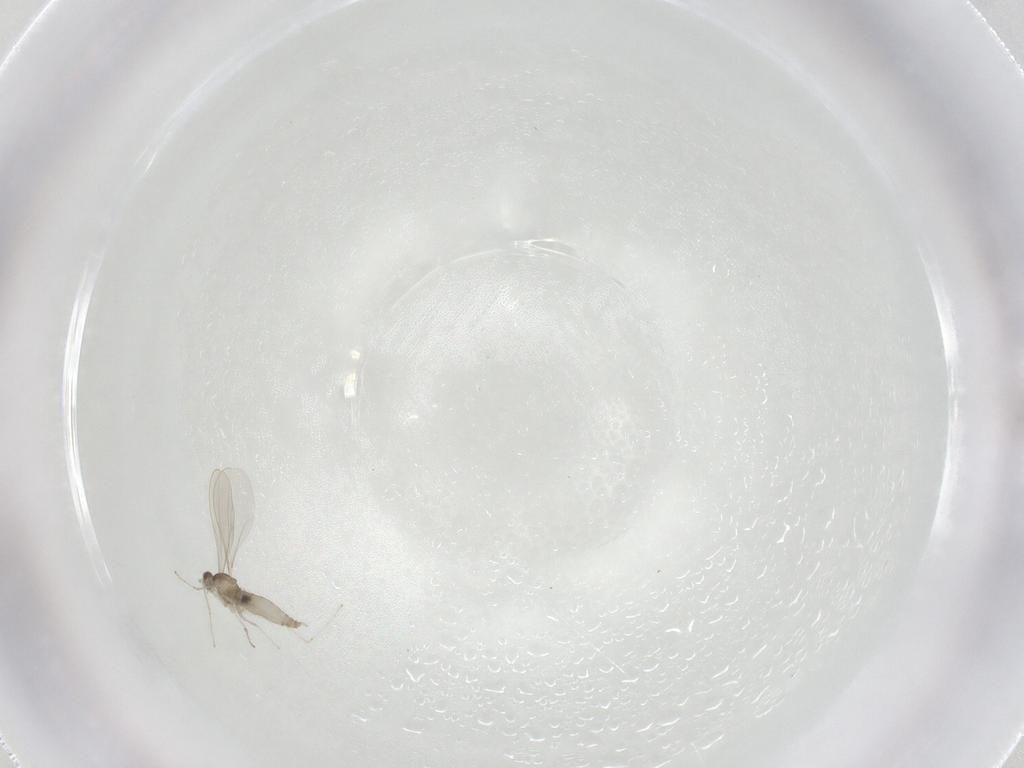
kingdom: Animalia
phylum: Arthropoda
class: Insecta
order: Diptera
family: Cecidomyiidae
